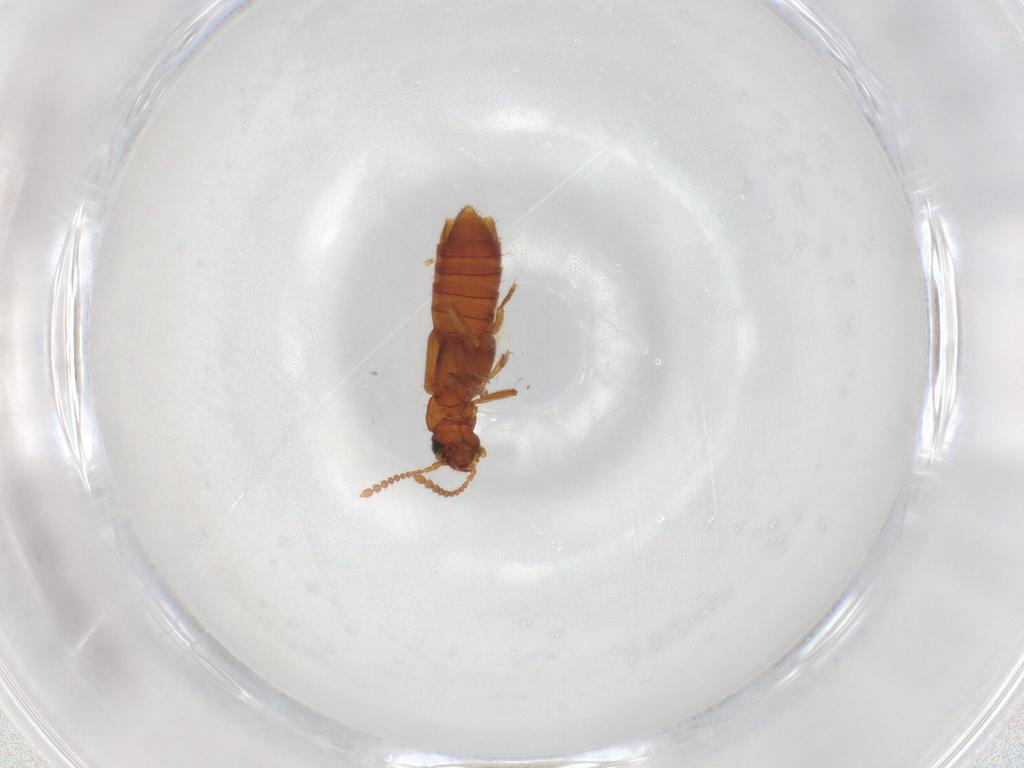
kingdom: Animalia
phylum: Arthropoda
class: Insecta
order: Coleoptera
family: Staphylinidae
